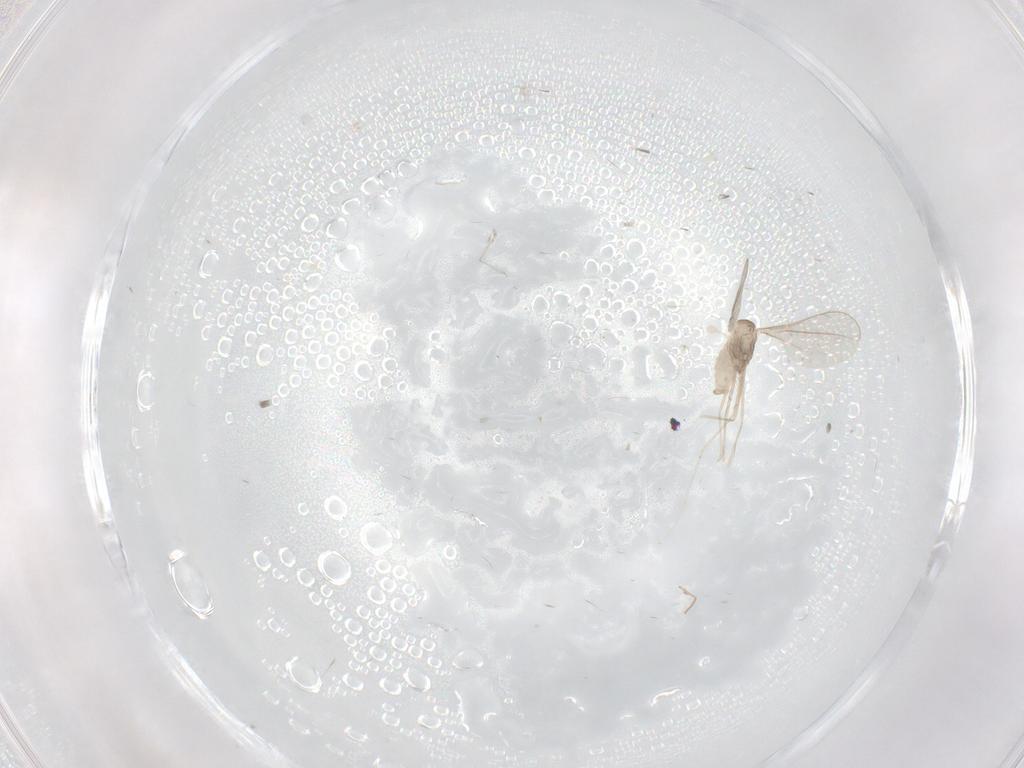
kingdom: Animalia
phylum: Arthropoda
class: Insecta
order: Diptera
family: Cecidomyiidae
